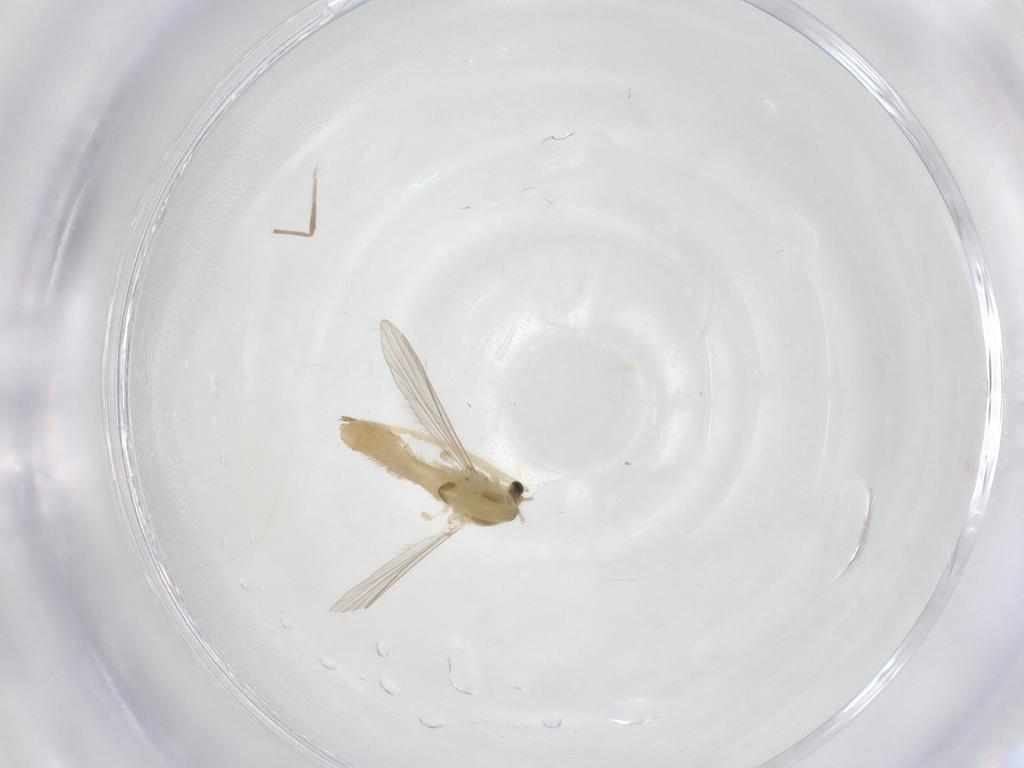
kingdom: Animalia
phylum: Arthropoda
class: Insecta
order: Diptera
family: Chironomidae
